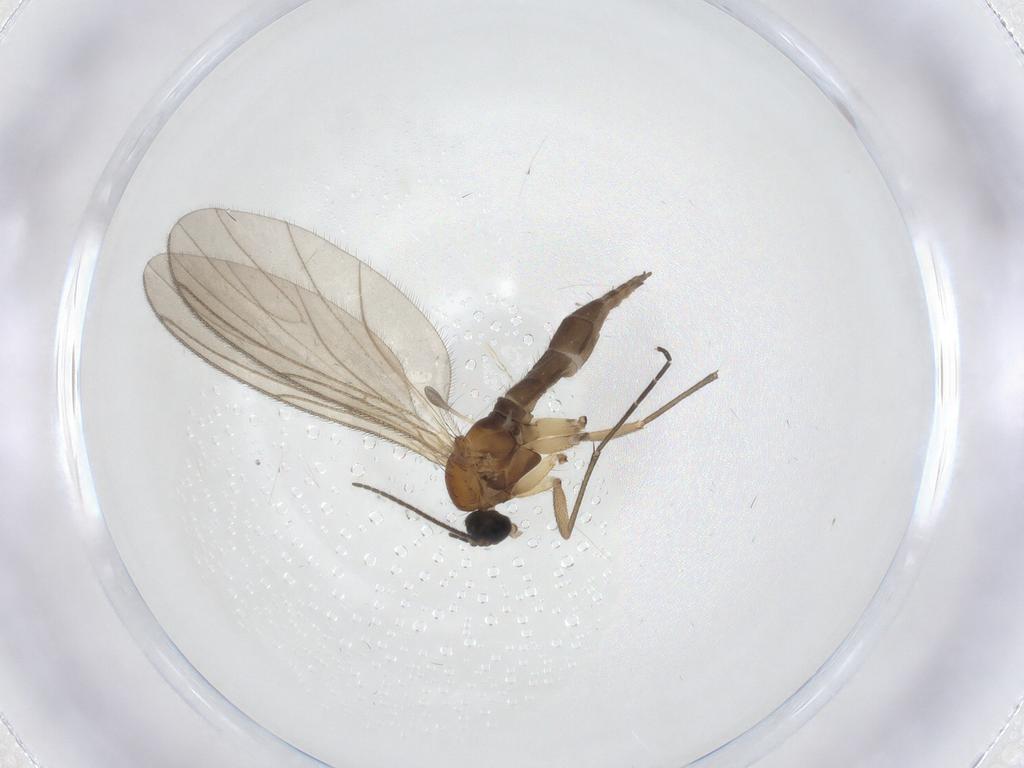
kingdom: Animalia
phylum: Arthropoda
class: Insecta
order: Diptera
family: Sciaridae
